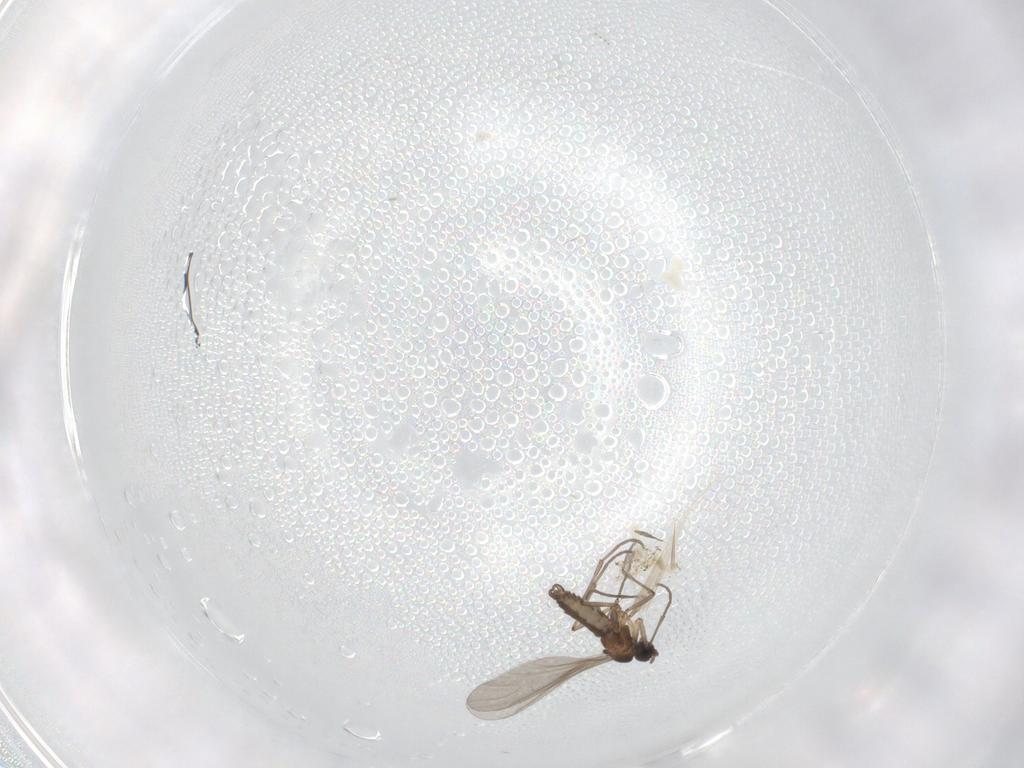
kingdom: Animalia
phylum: Arthropoda
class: Insecta
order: Diptera
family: Sciaridae
